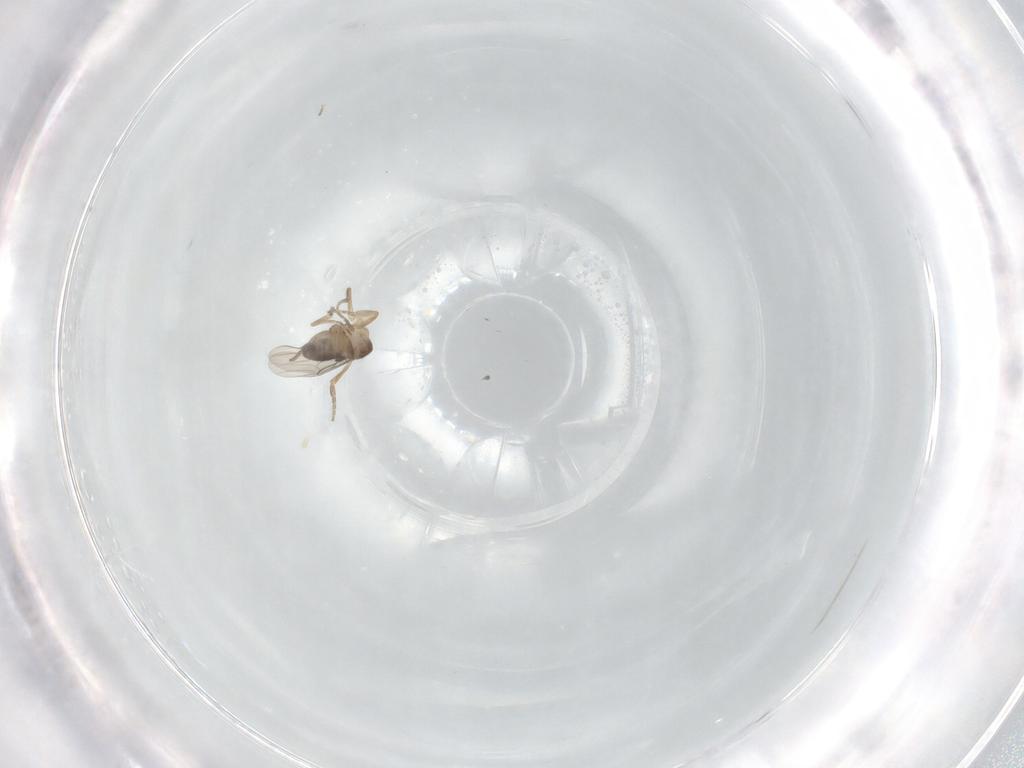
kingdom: Animalia
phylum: Arthropoda
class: Insecta
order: Diptera
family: Phoridae
